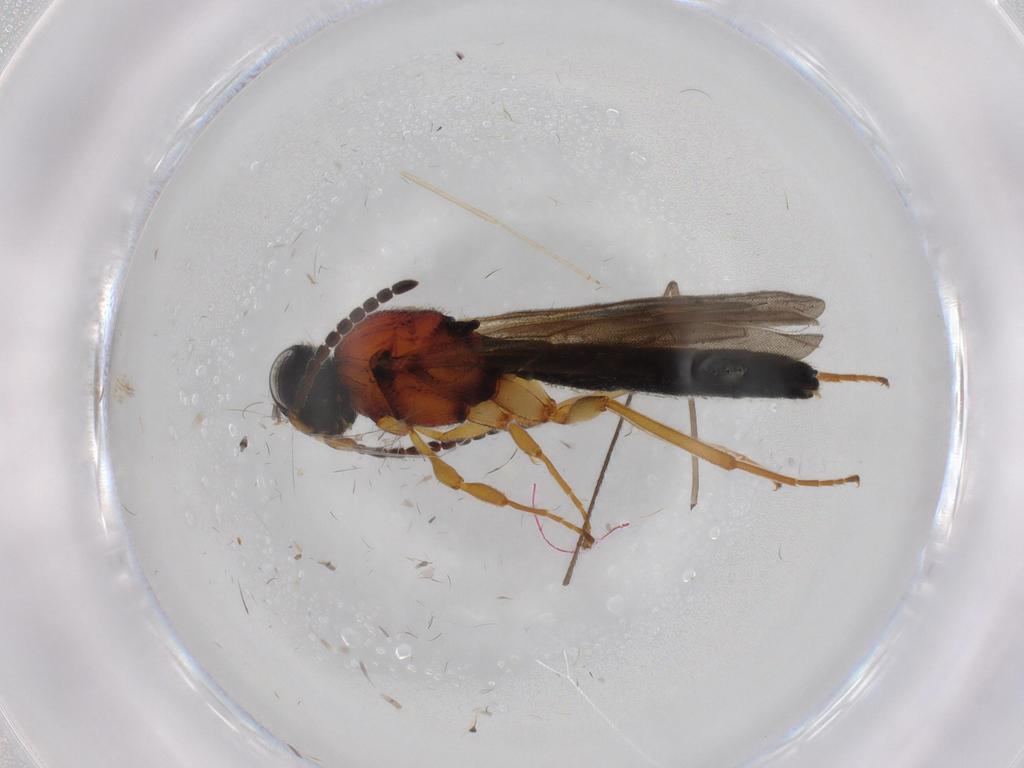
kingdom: Animalia
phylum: Arthropoda
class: Insecta
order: Hymenoptera
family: Scelionidae
